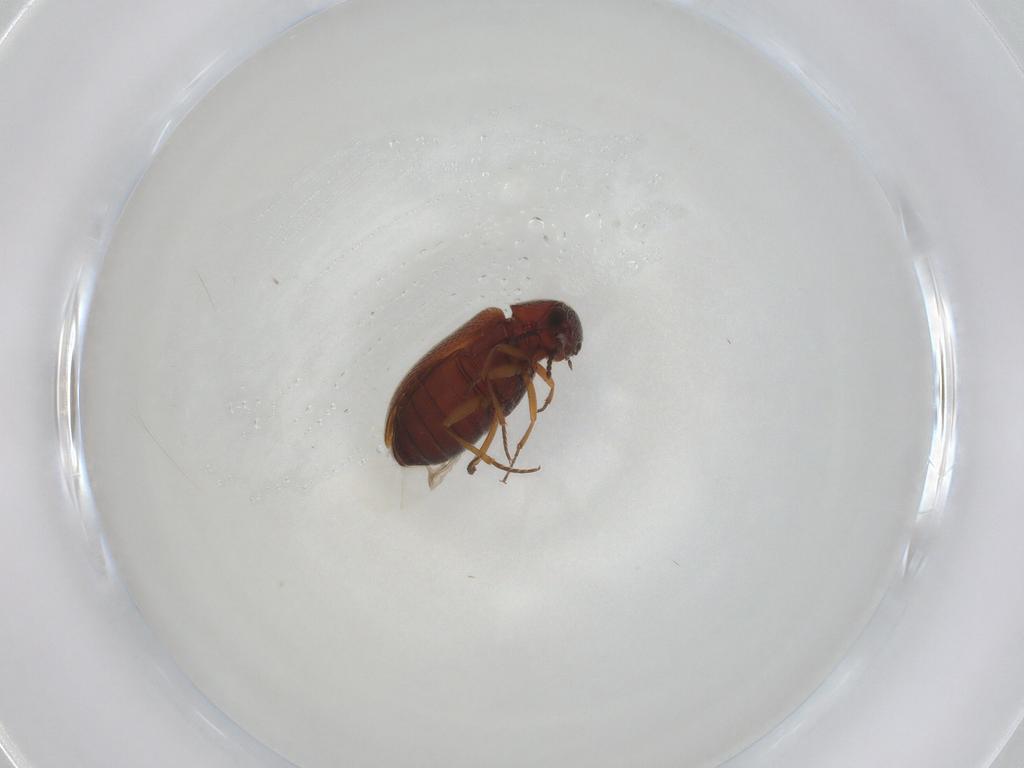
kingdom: Animalia
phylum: Arthropoda
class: Insecta
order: Coleoptera
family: Rhadalidae
